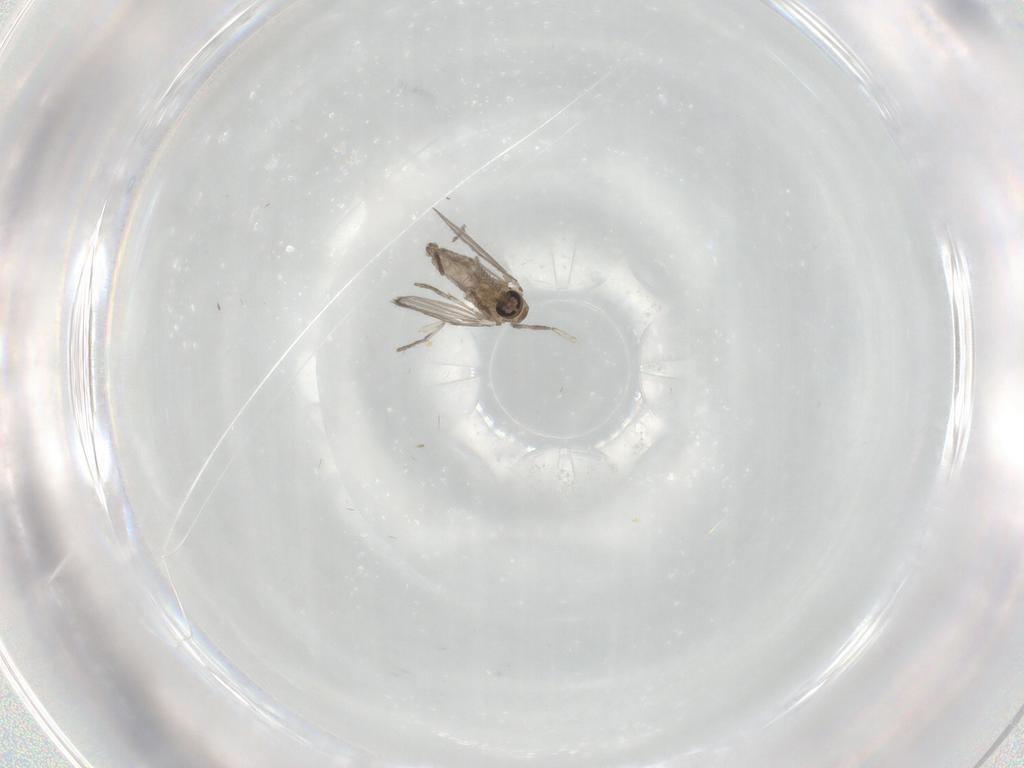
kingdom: Animalia
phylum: Arthropoda
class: Insecta
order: Diptera
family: Psychodidae
